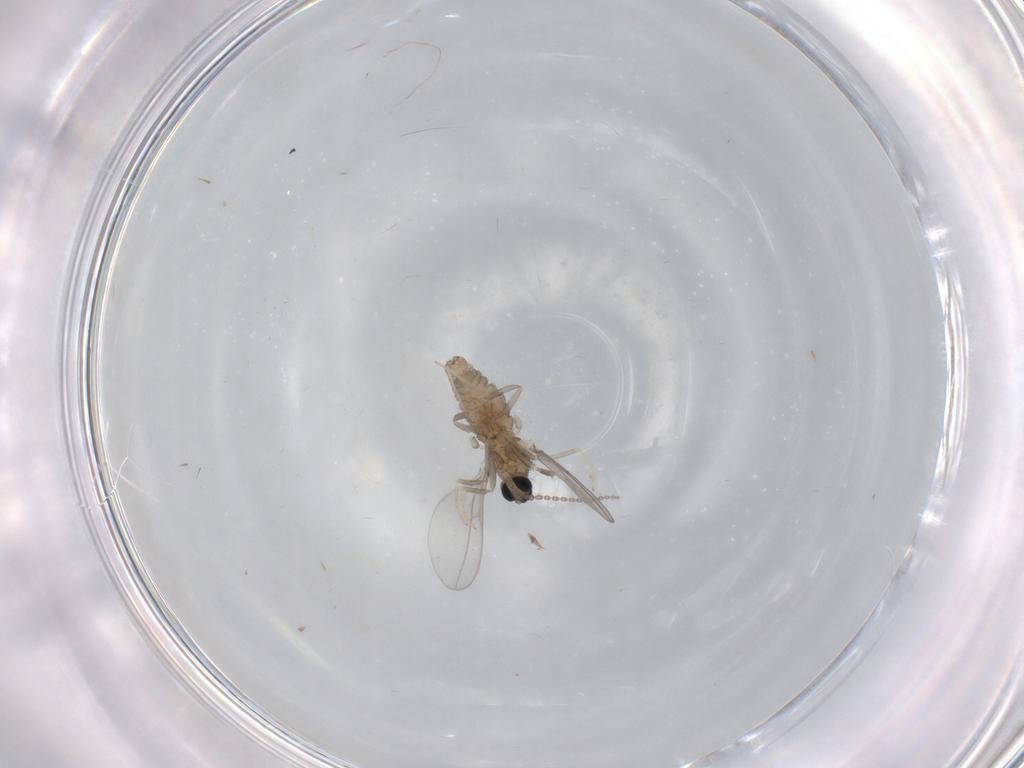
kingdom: Animalia
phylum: Arthropoda
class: Insecta
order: Diptera
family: Cecidomyiidae
